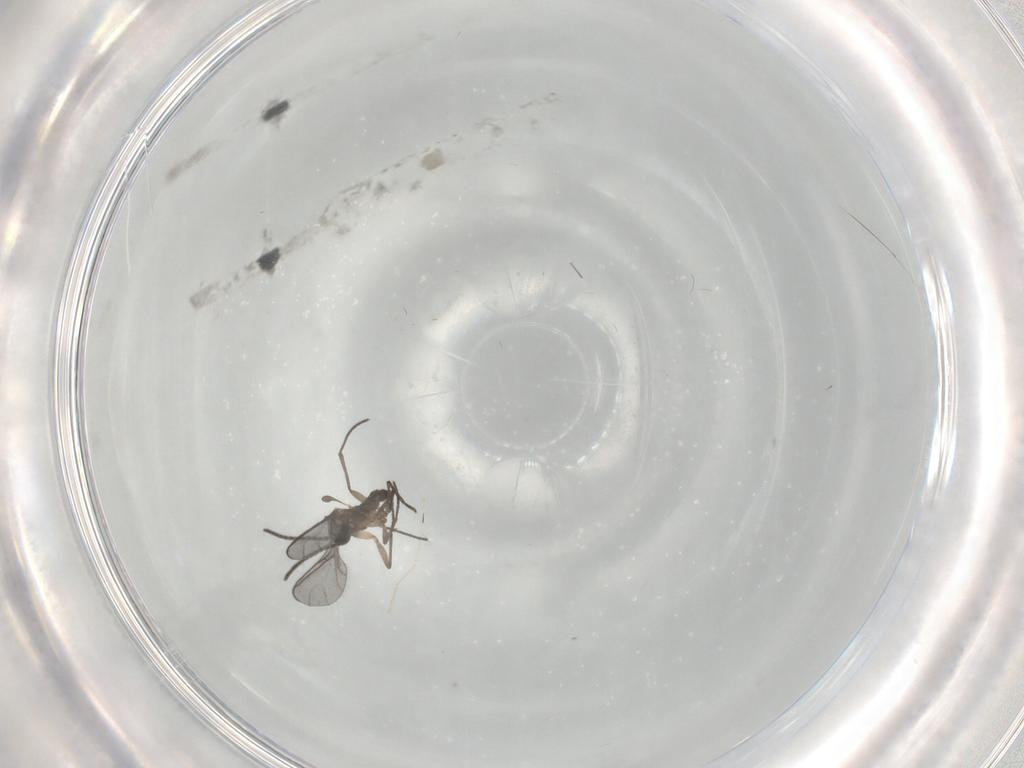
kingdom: Animalia
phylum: Arthropoda
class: Insecta
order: Diptera
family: Sciaridae
